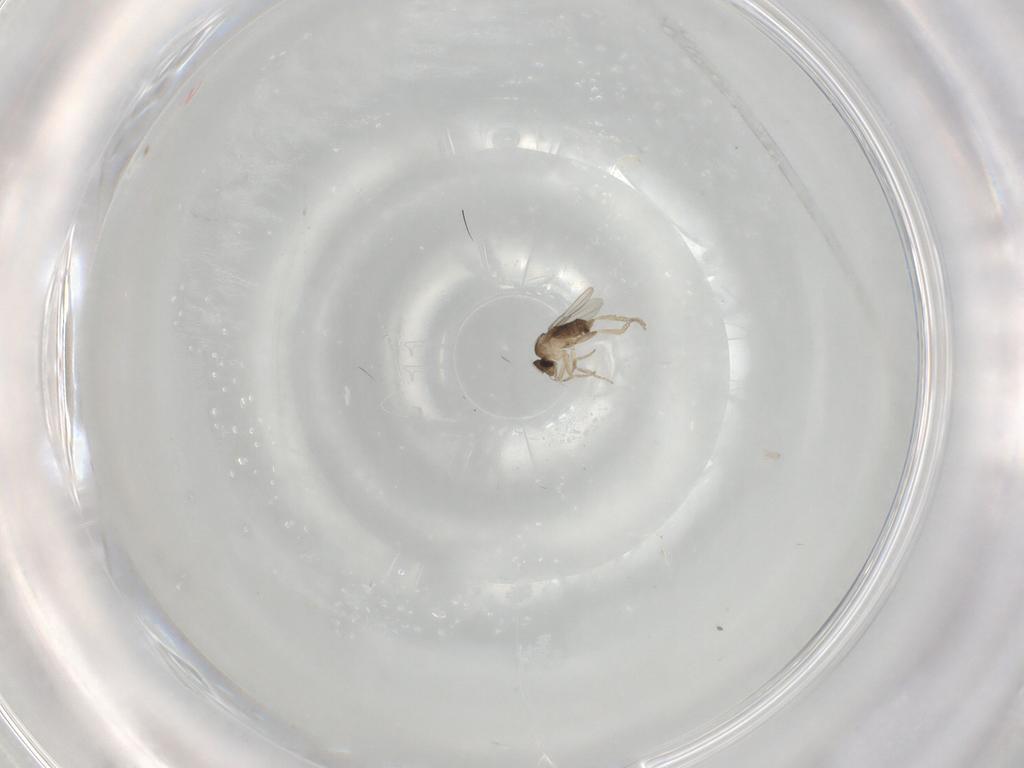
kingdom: Animalia
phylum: Arthropoda
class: Insecta
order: Diptera
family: Phoridae
